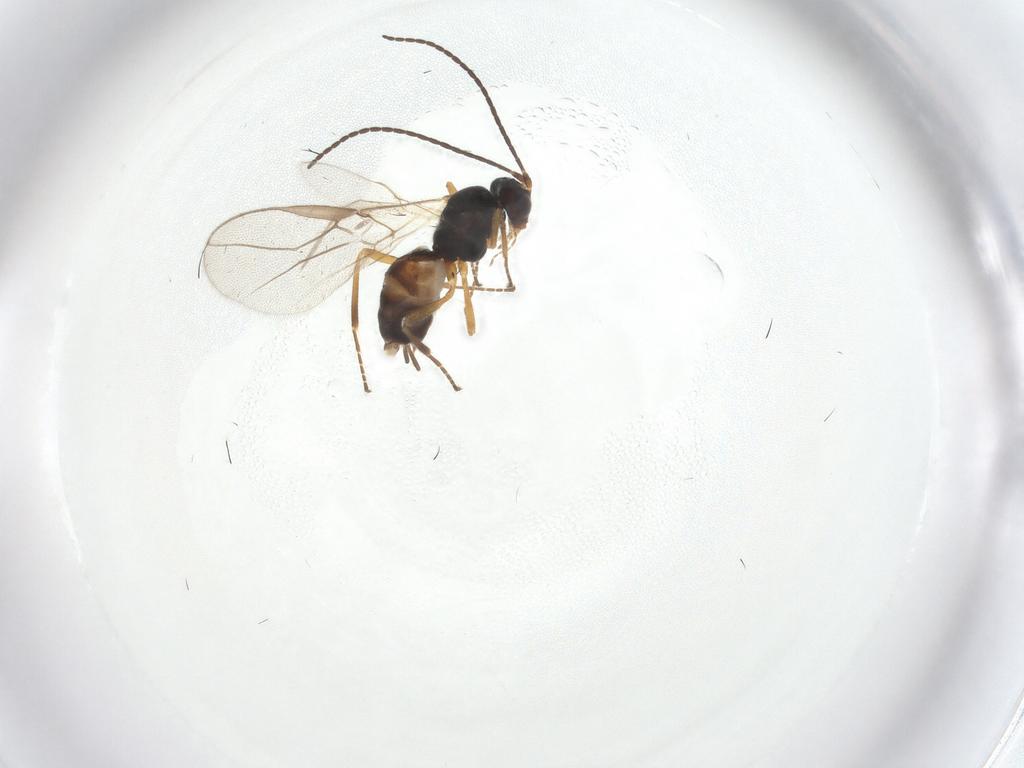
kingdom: Animalia
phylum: Arthropoda
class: Insecta
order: Hymenoptera
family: Braconidae
